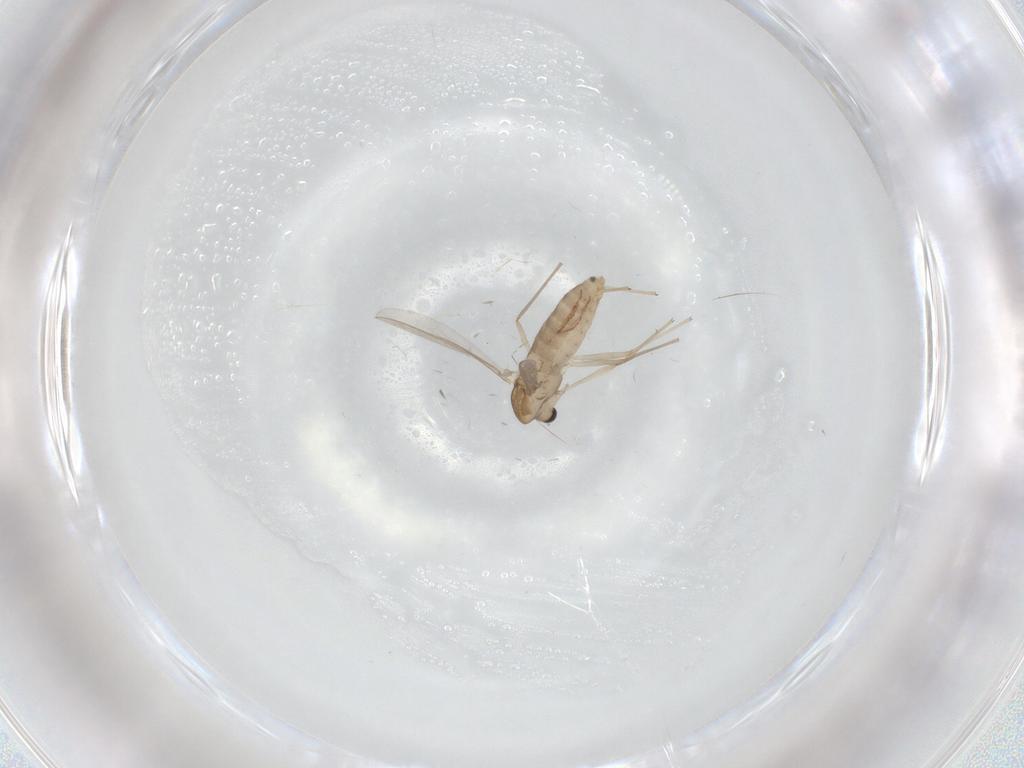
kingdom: Animalia
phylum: Arthropoda
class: Insecta
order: Diptera
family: Chironomidae
